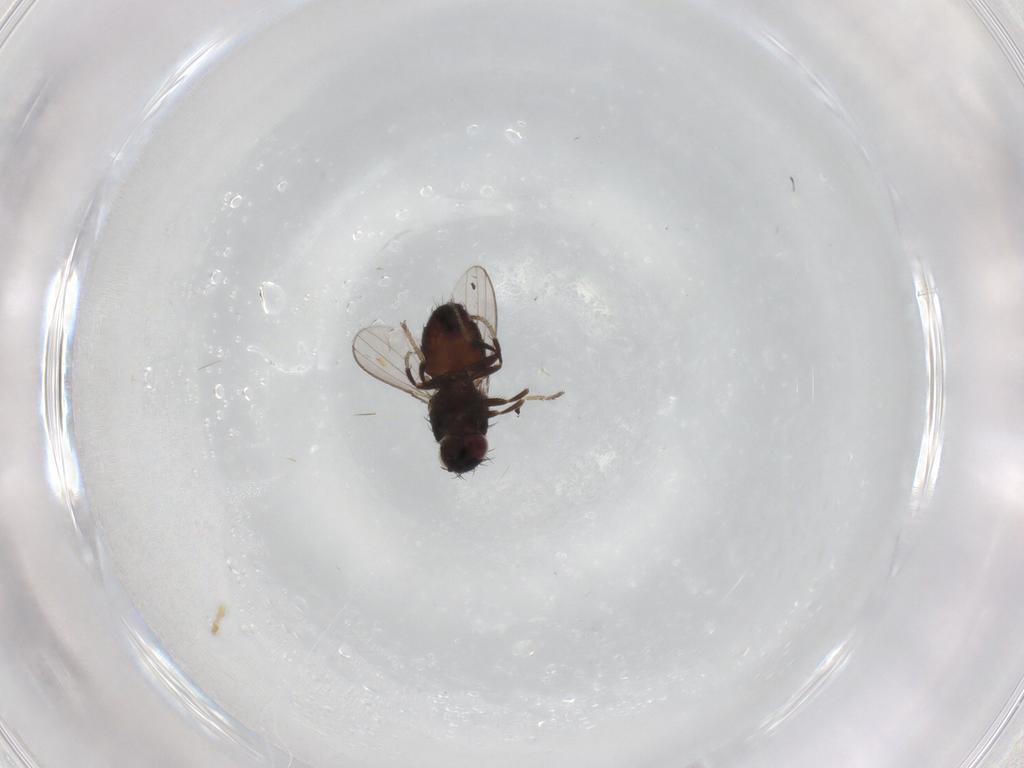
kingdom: Animalia
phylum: Arthropoda
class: Insecta
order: Diptera
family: Milichiidae
